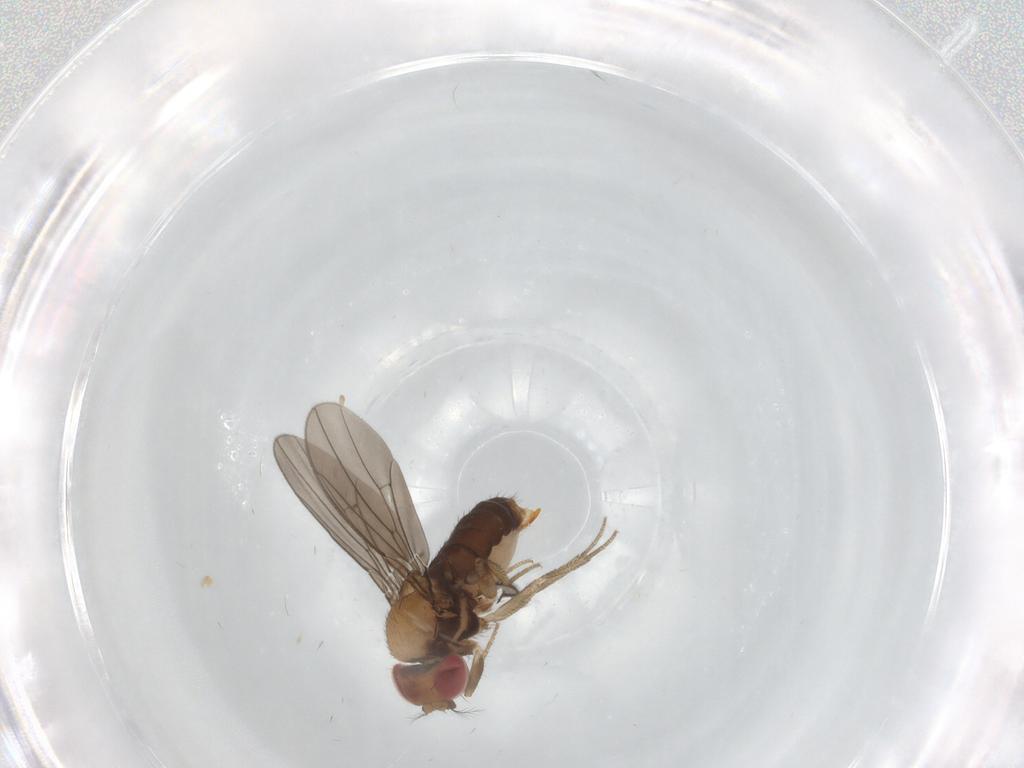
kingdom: Animalia
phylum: Arthropoda
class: Insecta
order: Diptera
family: Drosophilidae
